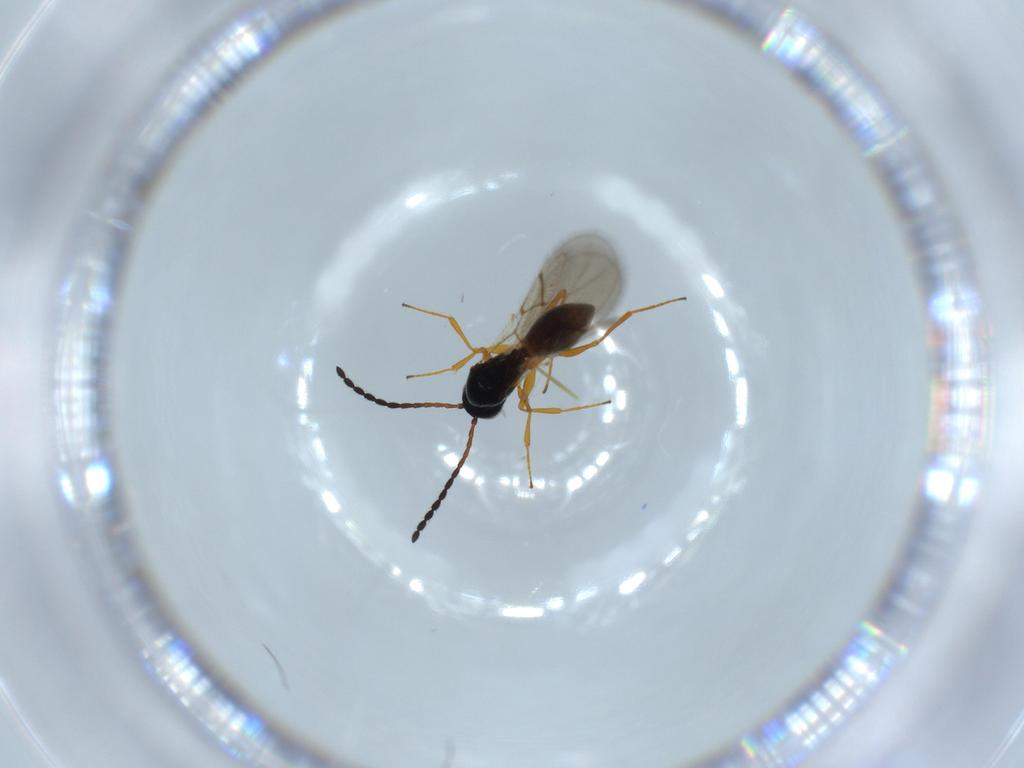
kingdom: Animalia
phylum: Arthropoda
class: Insecta
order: Hymenoptera
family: Figitidae
